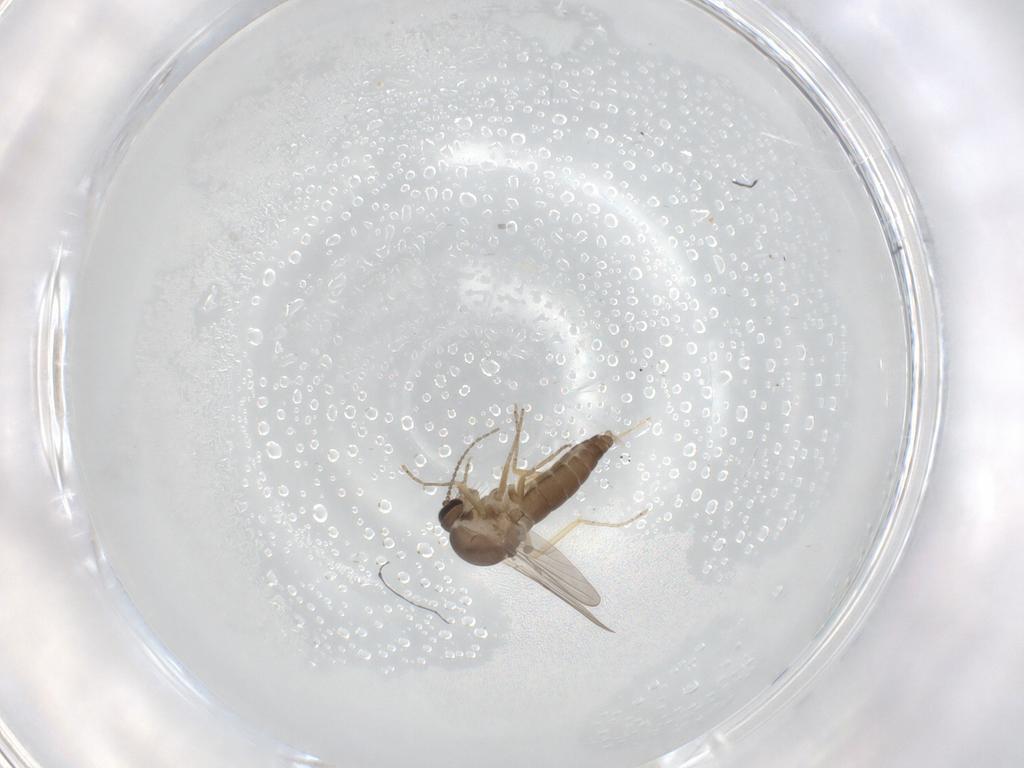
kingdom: Animalia
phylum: Arthropoda
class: Insecta
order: Diptera
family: Ceratopogonidae
